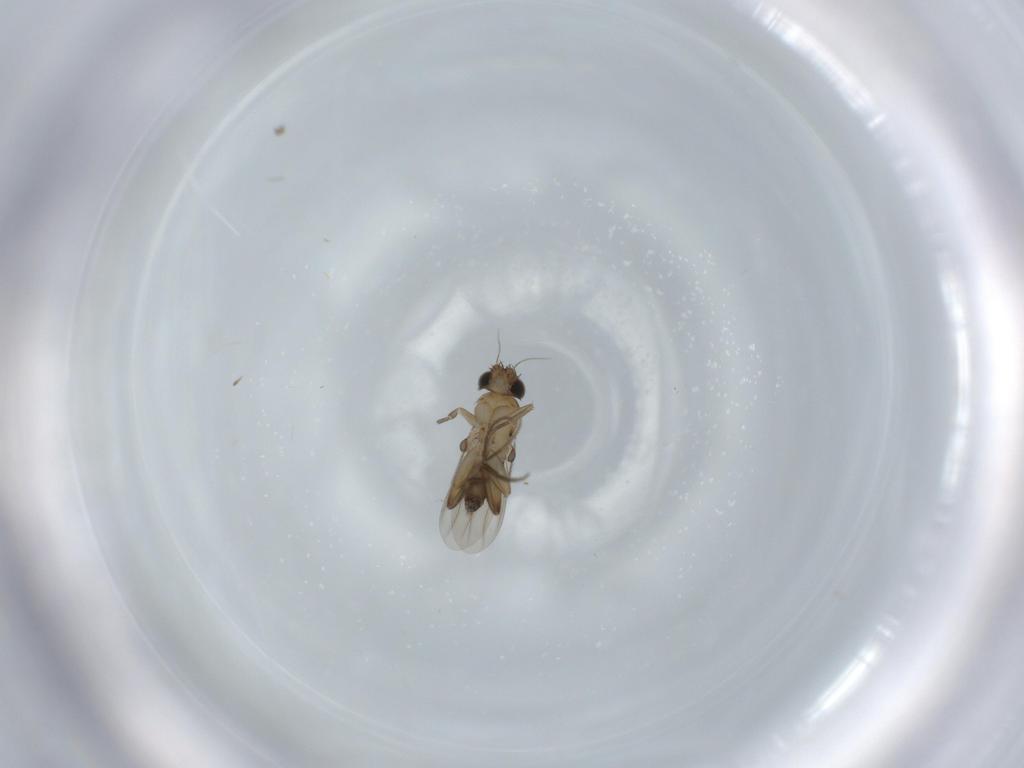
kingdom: Animalia
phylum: Arthropoda
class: Insecta
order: Diptera
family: Phoridae
